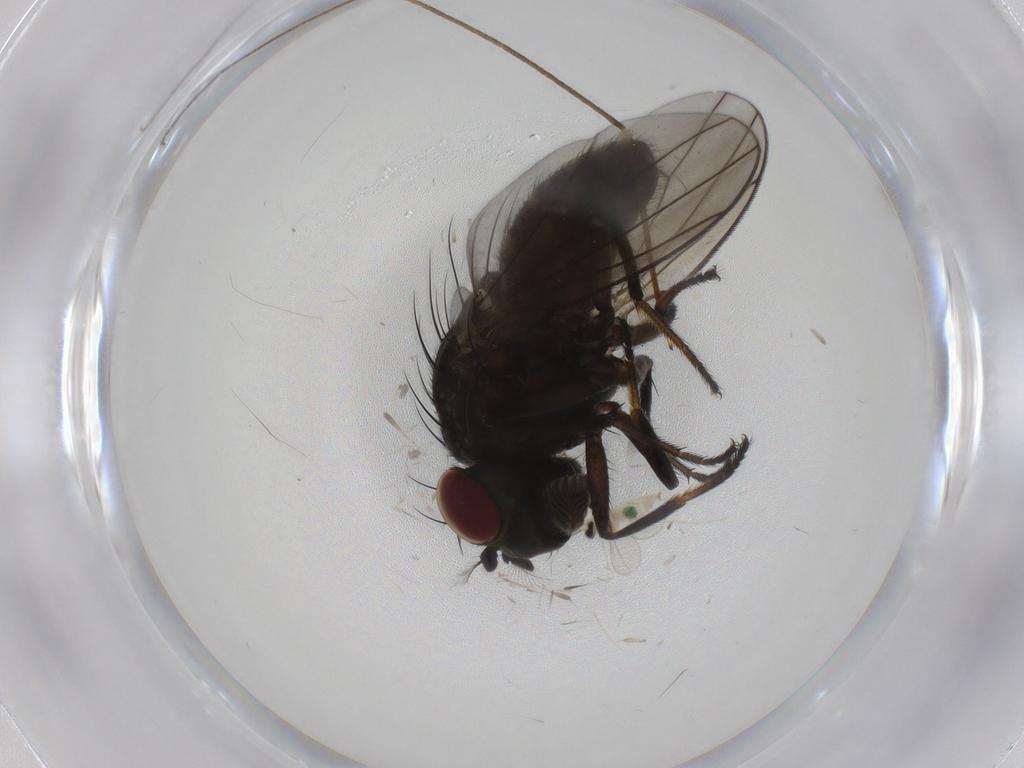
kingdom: Animalia
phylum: Arthropoda
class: Insecta
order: Diptera
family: Ephydridae
